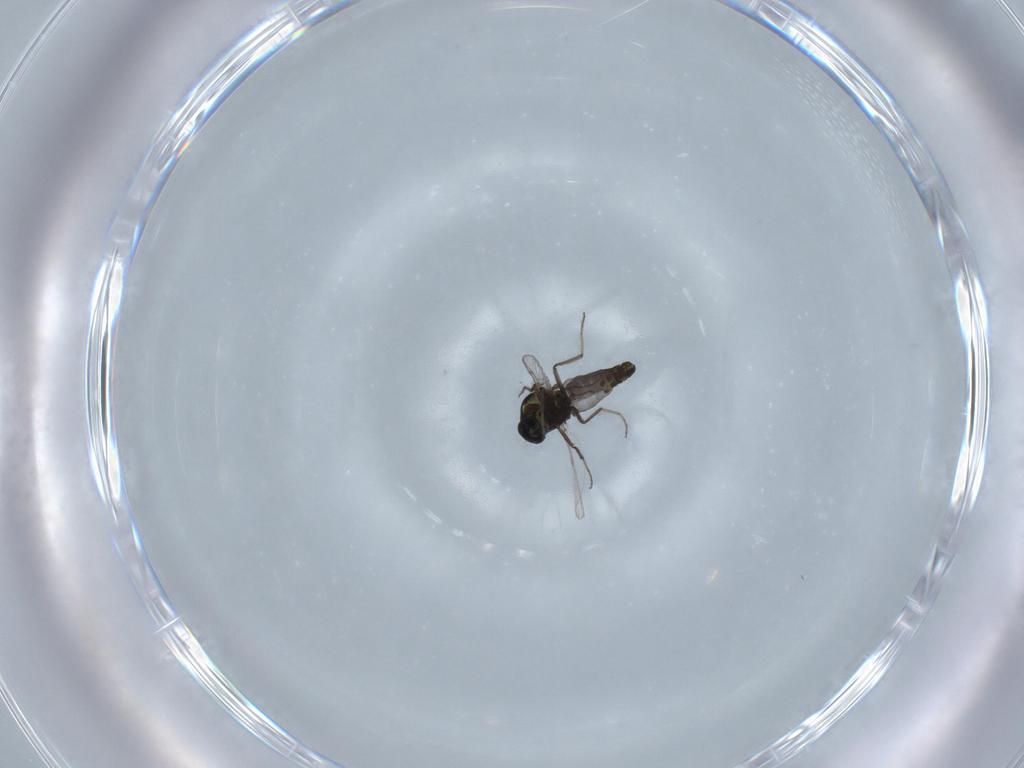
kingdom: Animalia
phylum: Arthropoda
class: Insecta
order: Diptera
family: Ceratopogonidae
